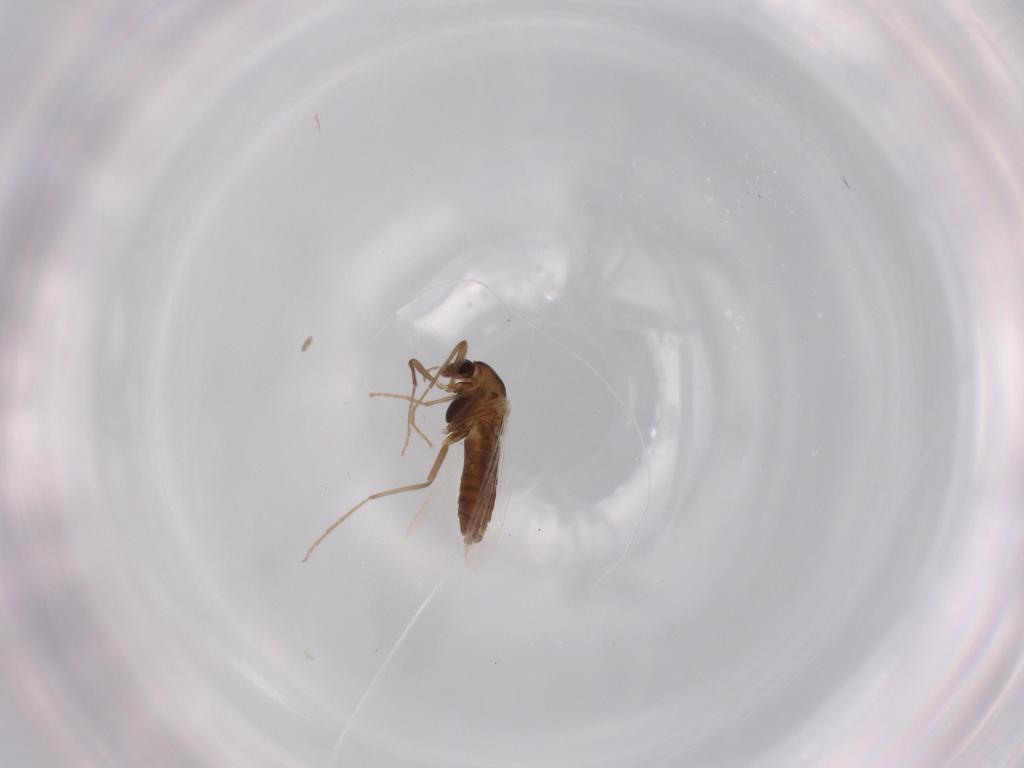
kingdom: Animalia
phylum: Arthropoda
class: Insecta
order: Diptera
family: Chironomidae
